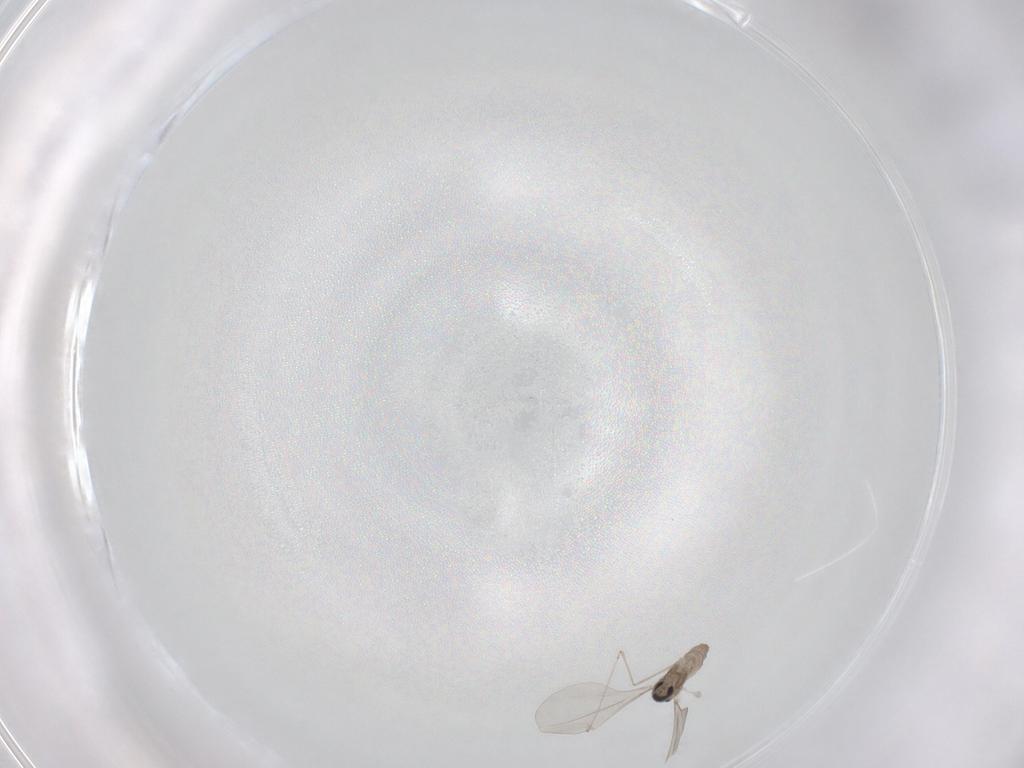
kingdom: Animalia
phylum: Arthropoda
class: Insecta
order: Diptera
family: Cecidomyiidae
